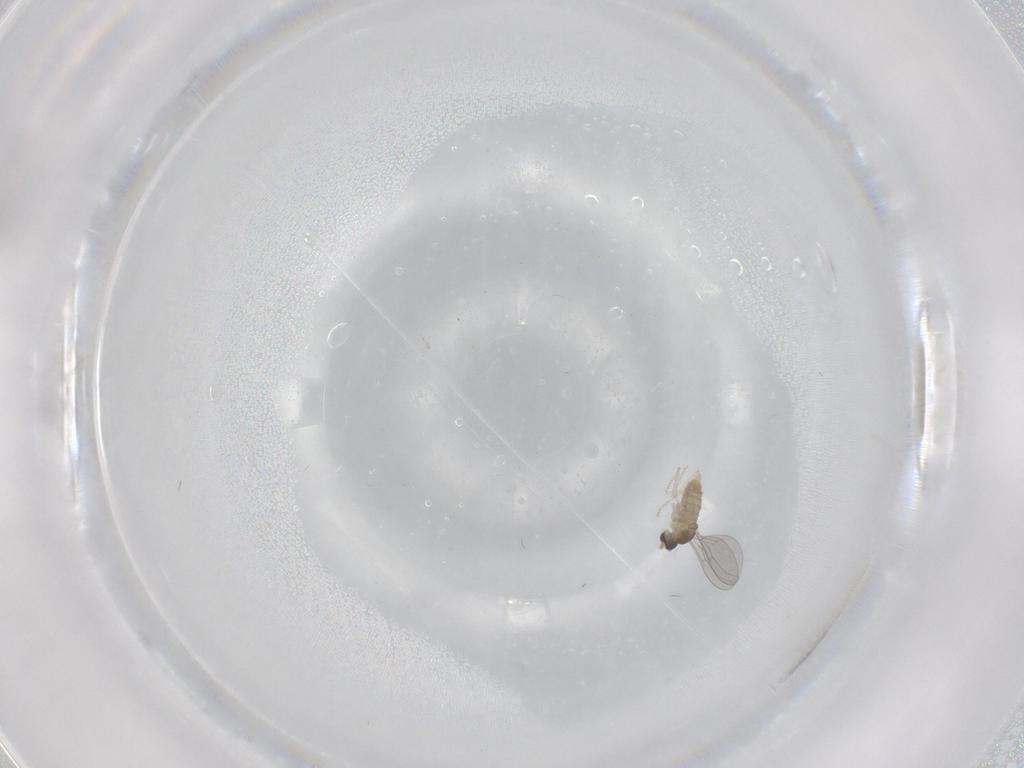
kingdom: Animalia
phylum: Arthropoda
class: Insecta
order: Diptera
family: Cecidomyiidae
